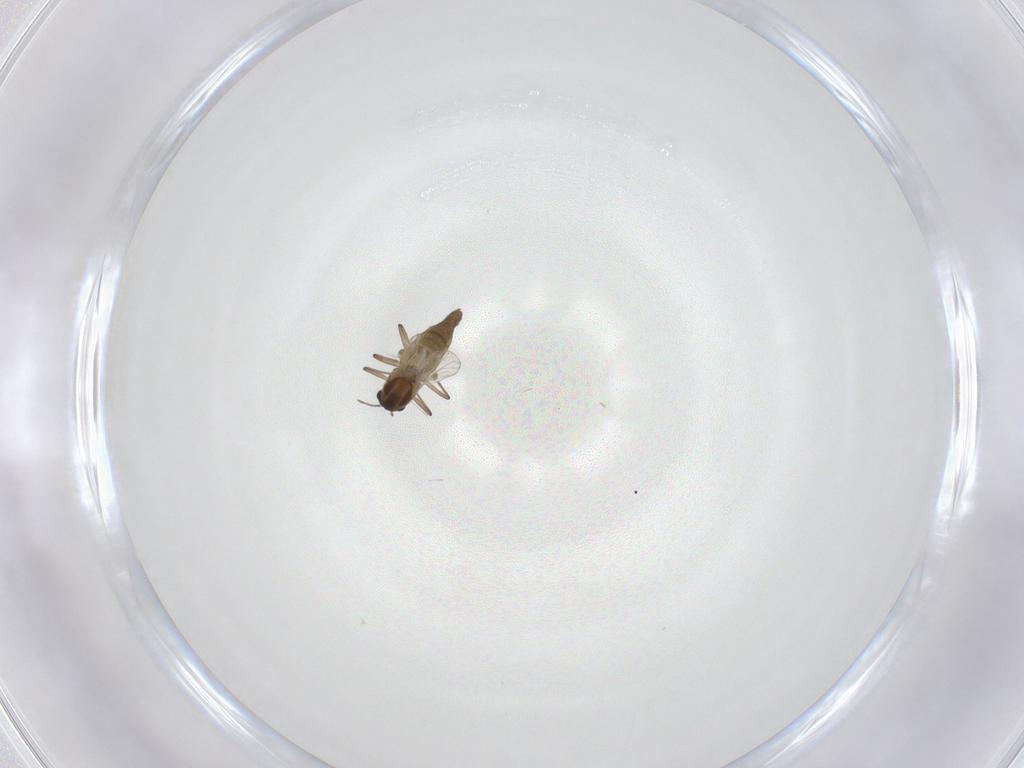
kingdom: Animalia
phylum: Arthropoda
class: Insecta
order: Diptera
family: Chironomidae
